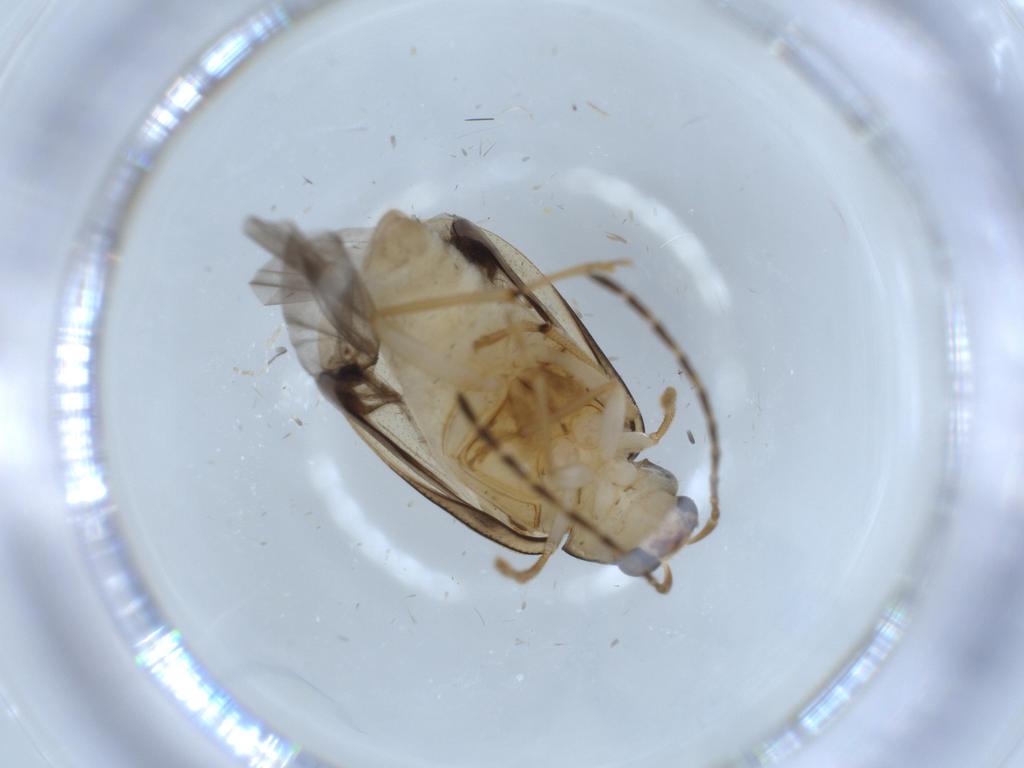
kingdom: Animalia
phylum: Arthropoda
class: Insecta
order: Coleoptera
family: Chrysomelidae
